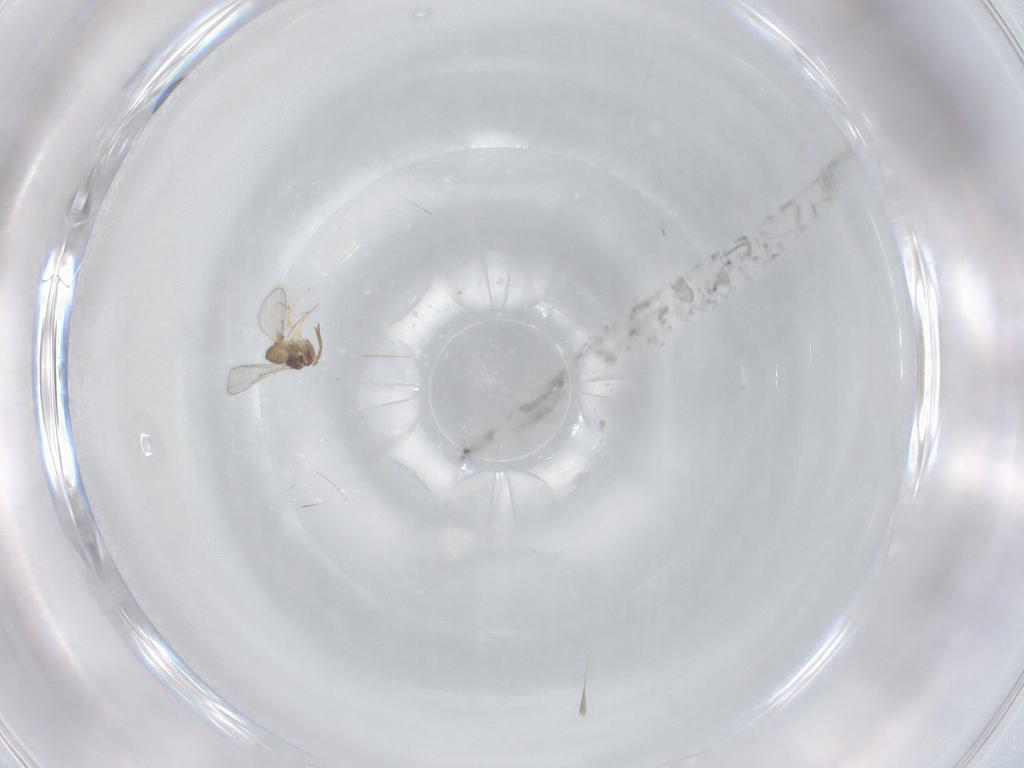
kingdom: Animalia
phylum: Arthropoda
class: Insecta
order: Hymenoptera
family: Eulophidae
